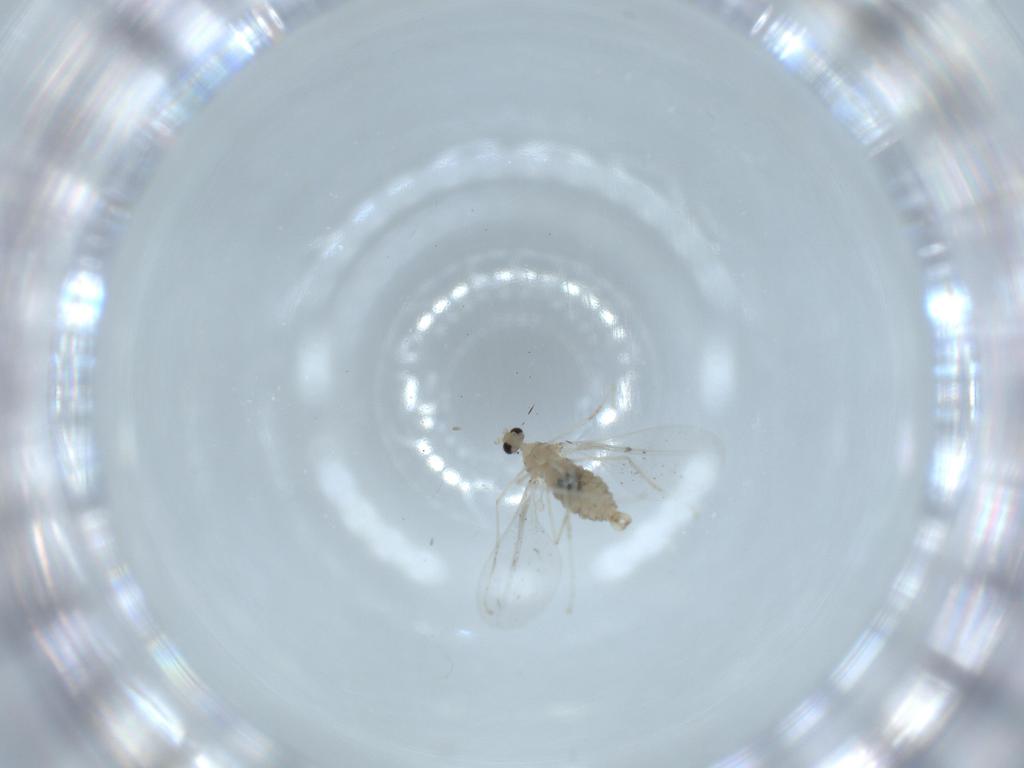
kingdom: Animalia
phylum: Arthropoda
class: Insecta
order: Diptera
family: Cecidomyiidae
